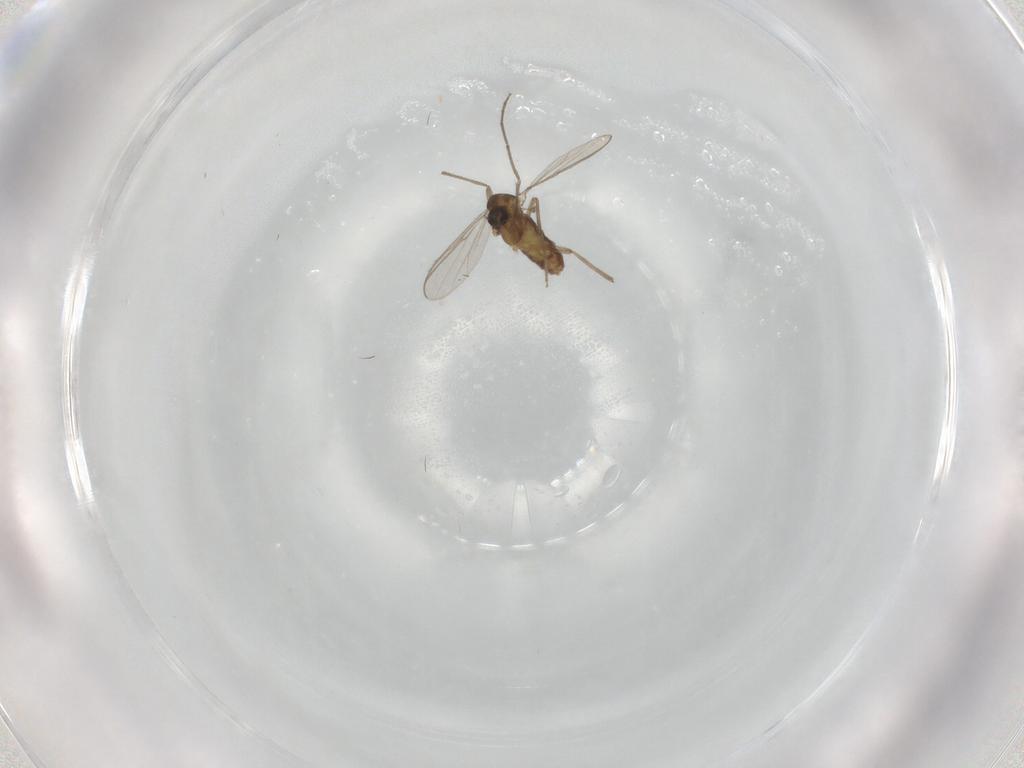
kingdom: Animalia
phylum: Arthropoda
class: Insecta
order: Diptera
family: Chironomidae
